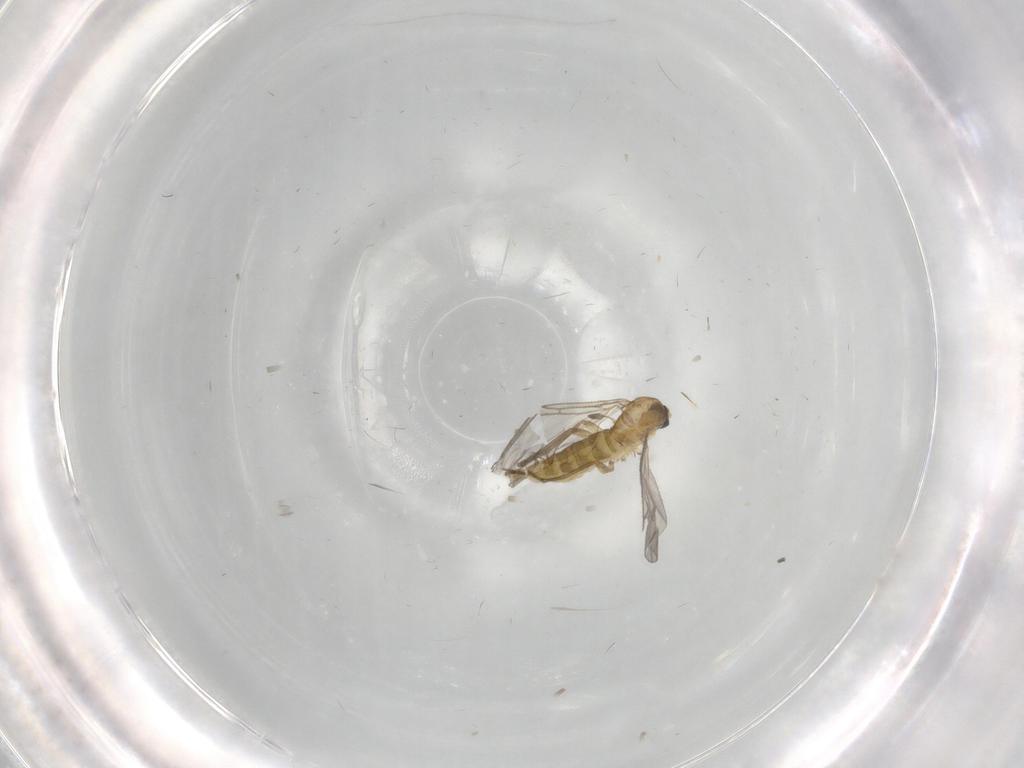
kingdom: Animalia
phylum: Arthropoda
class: Insecta
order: Diptera
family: Sciaridae
